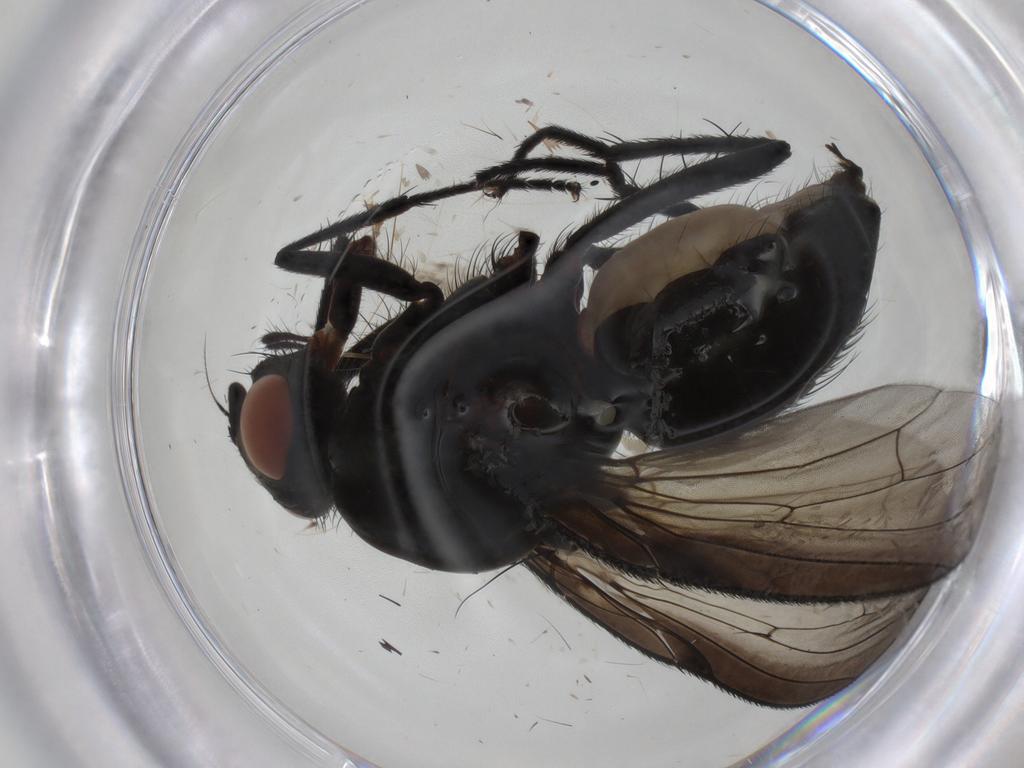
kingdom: Animalia
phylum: Arthropoda
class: Insecta
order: Diptera
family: Anthomyiidae
